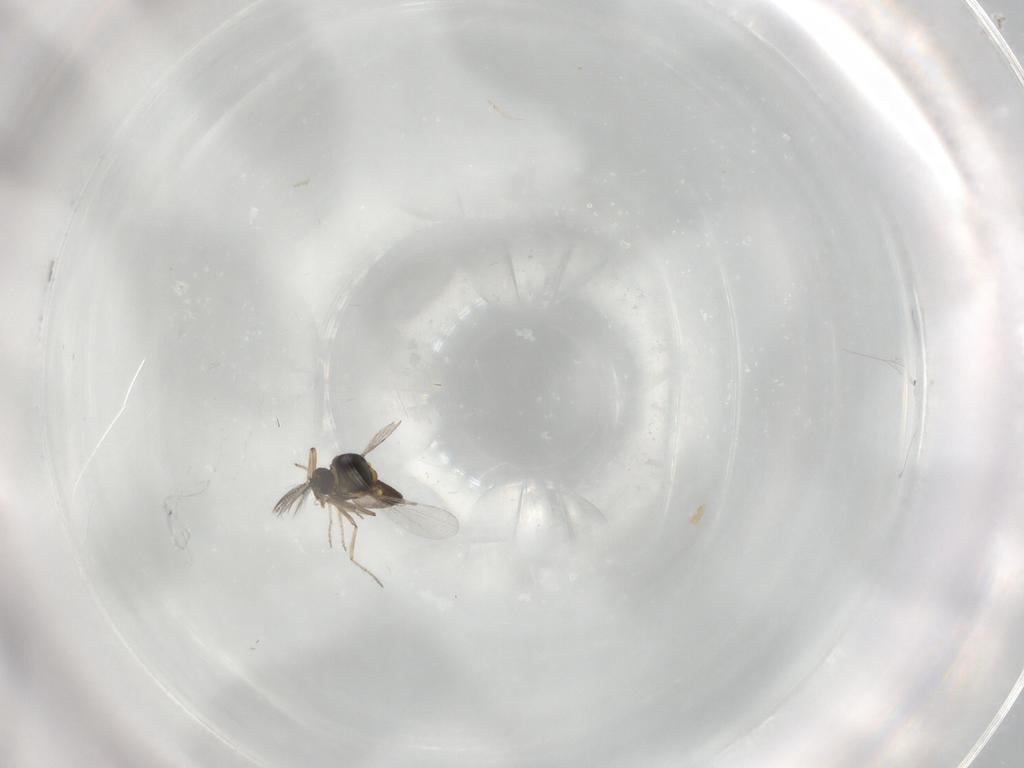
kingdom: Animalia
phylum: Arthropoda
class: Insecta
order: Diptera
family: Ceratopogonidae
